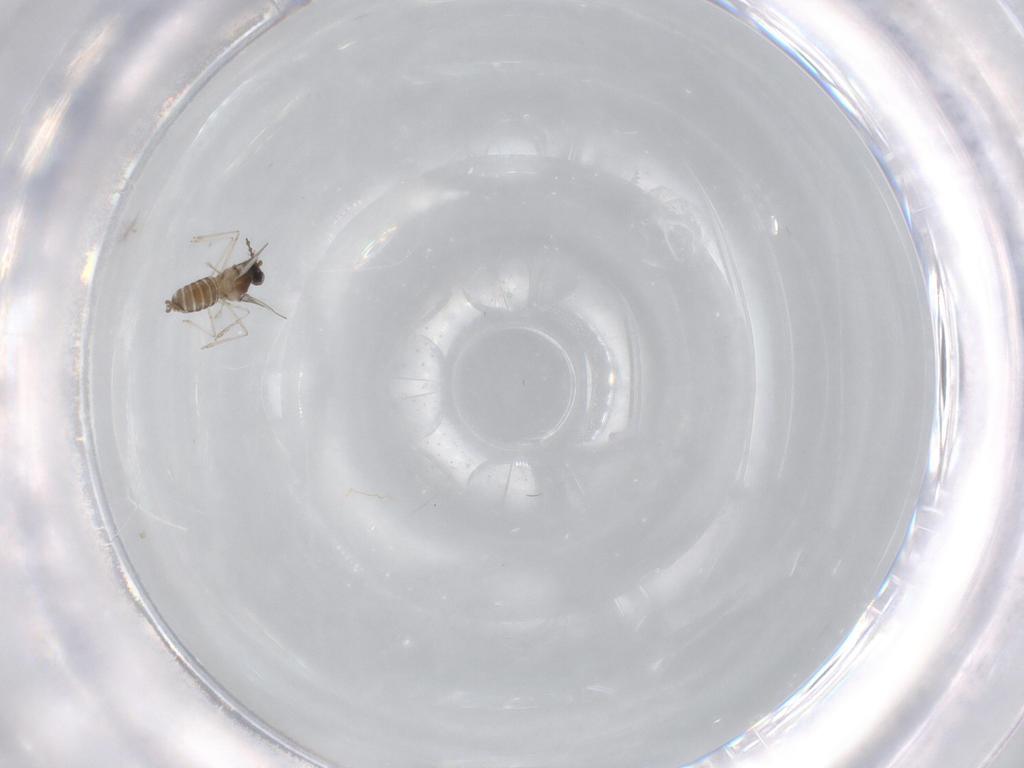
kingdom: Animalia
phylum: Arthropoda
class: Insecta
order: Diptera
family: Cecidomyiidae
